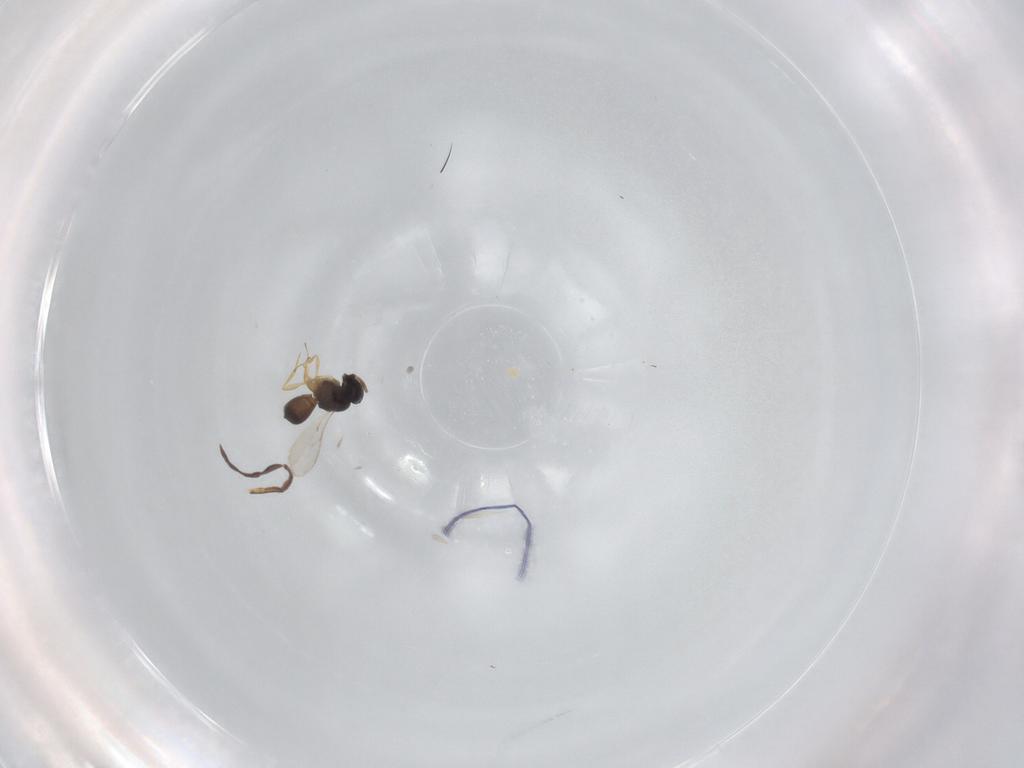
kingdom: Animalia
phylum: Arthropoda
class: Insecta
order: Hymenoptera
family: Scelionidae
